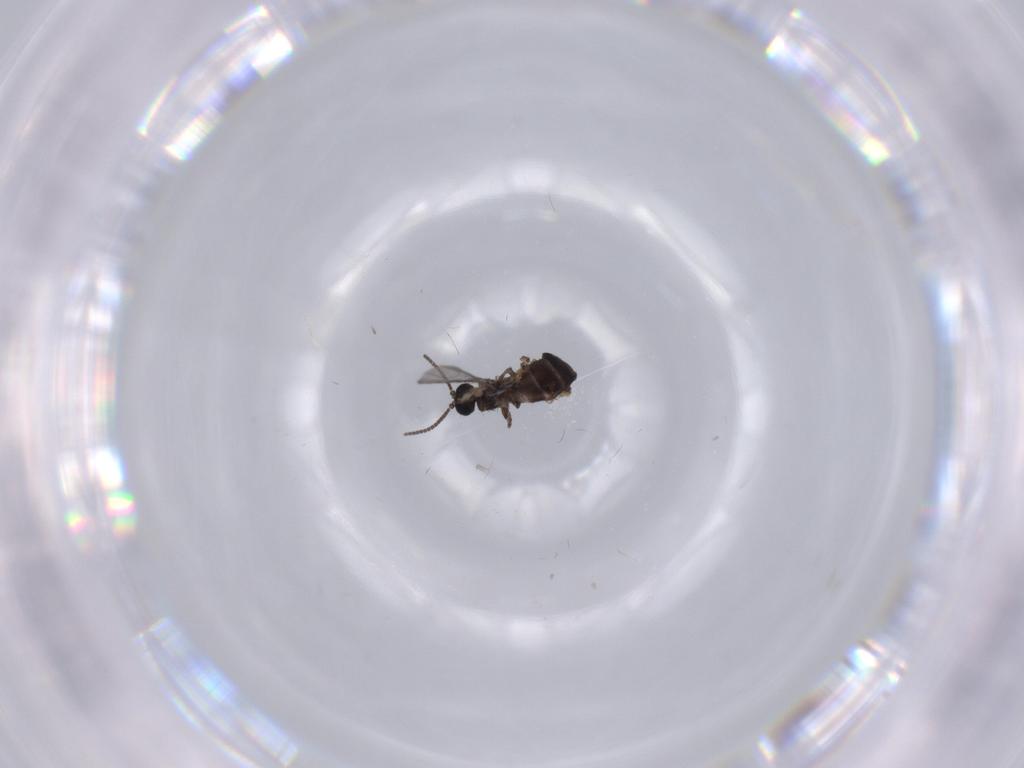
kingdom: Animalia
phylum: Arthropoda
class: Insecta
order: Diptera
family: Sciaridae
